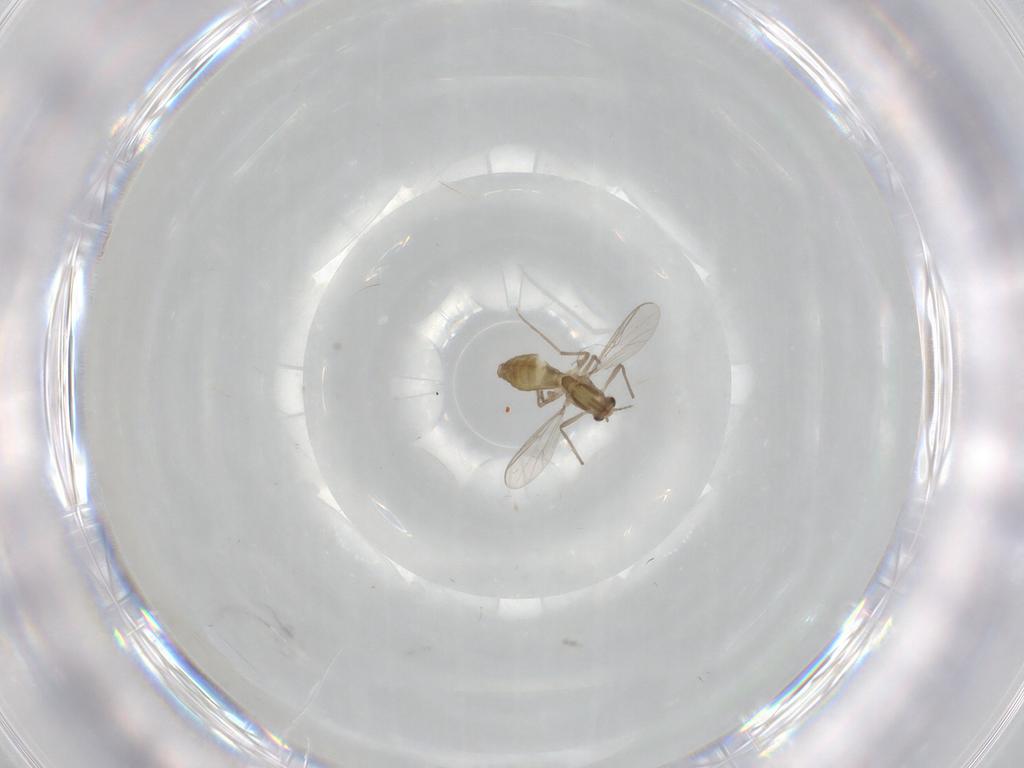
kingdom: Animalia
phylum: Arthropoda
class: Insecta
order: Diptera
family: Chironomidae
